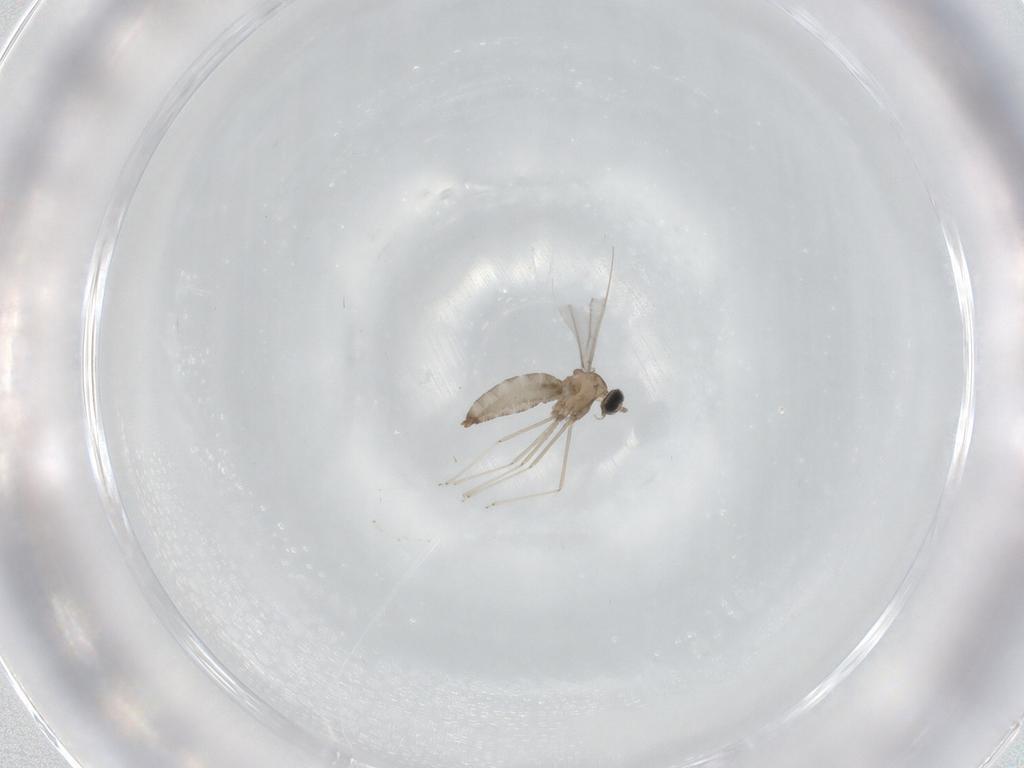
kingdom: Animalia
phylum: Arthropoda
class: Insecta
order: Diptera
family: Cecidomyiidae
